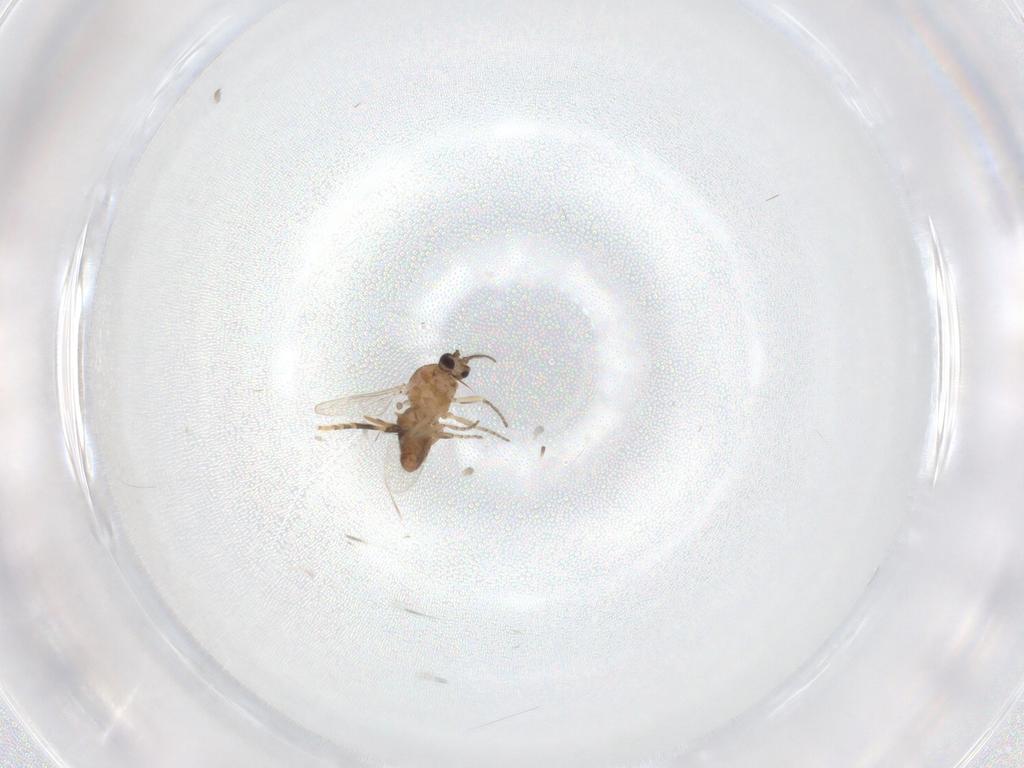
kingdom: Animalia
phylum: Arthropoda
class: Insecta
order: Diptera
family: Ceratopogonidae
